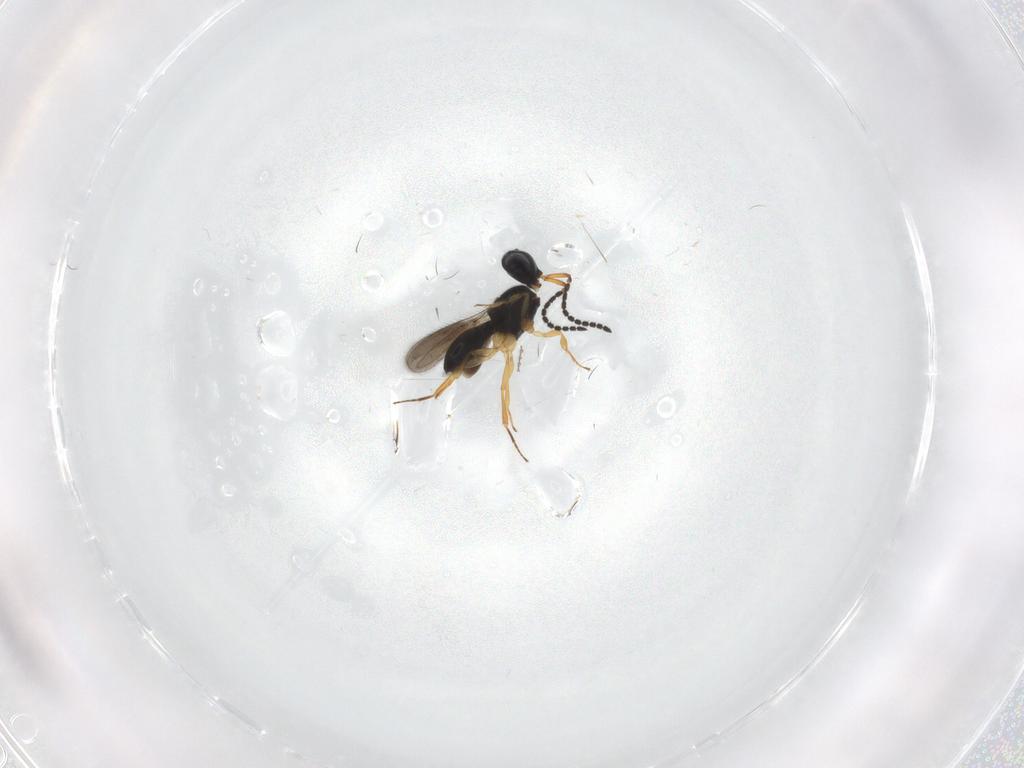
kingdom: Animalia
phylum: Arthropoda
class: Insecta
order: Hymenoptera
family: Scelionidae
